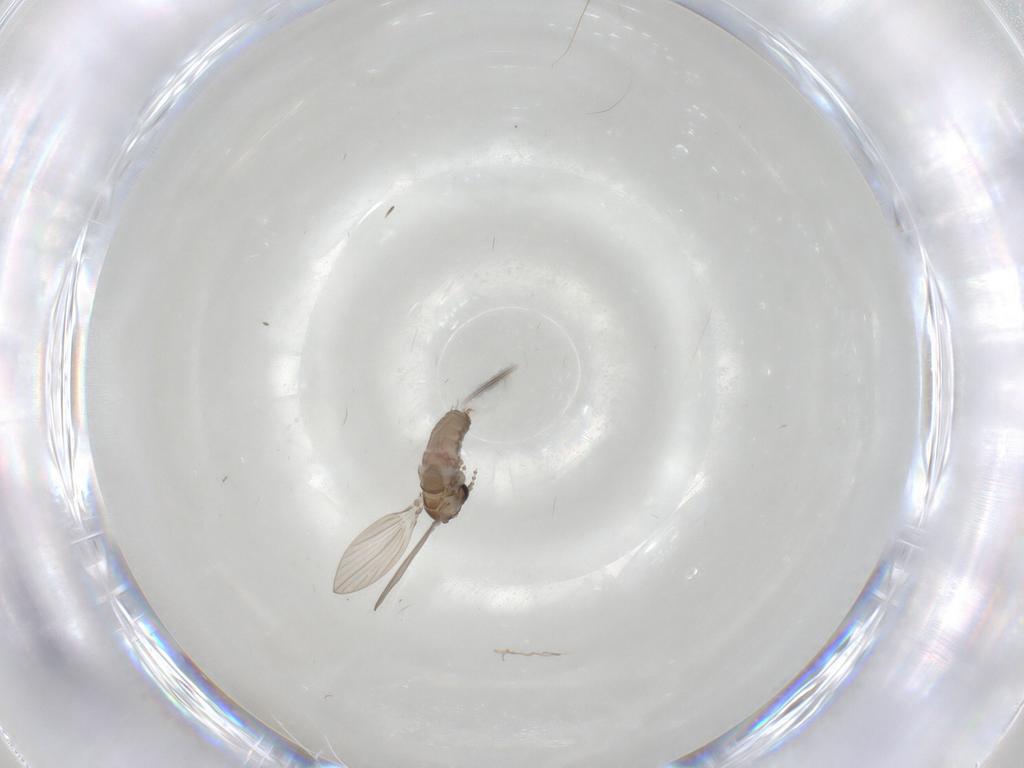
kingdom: Animalia
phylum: Arthropoda
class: Insecta
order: Diptera
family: Psychodidae
